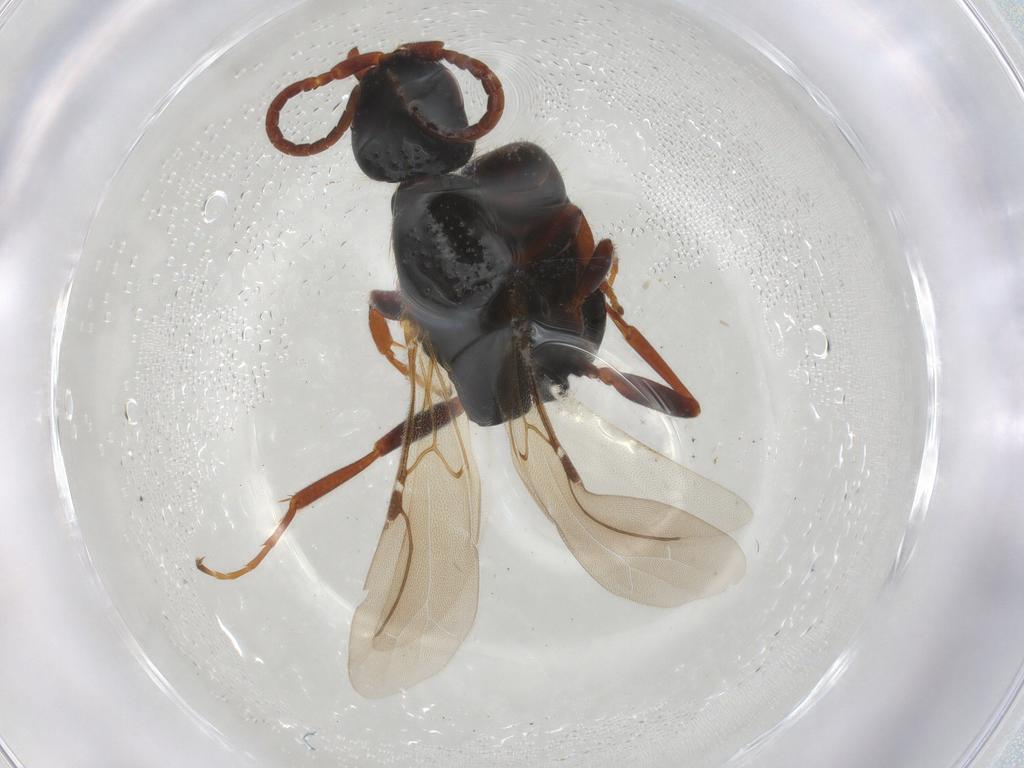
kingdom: Animalia
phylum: Arthropoda
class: Insecta
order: Hymenoptera
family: Bethylidae
